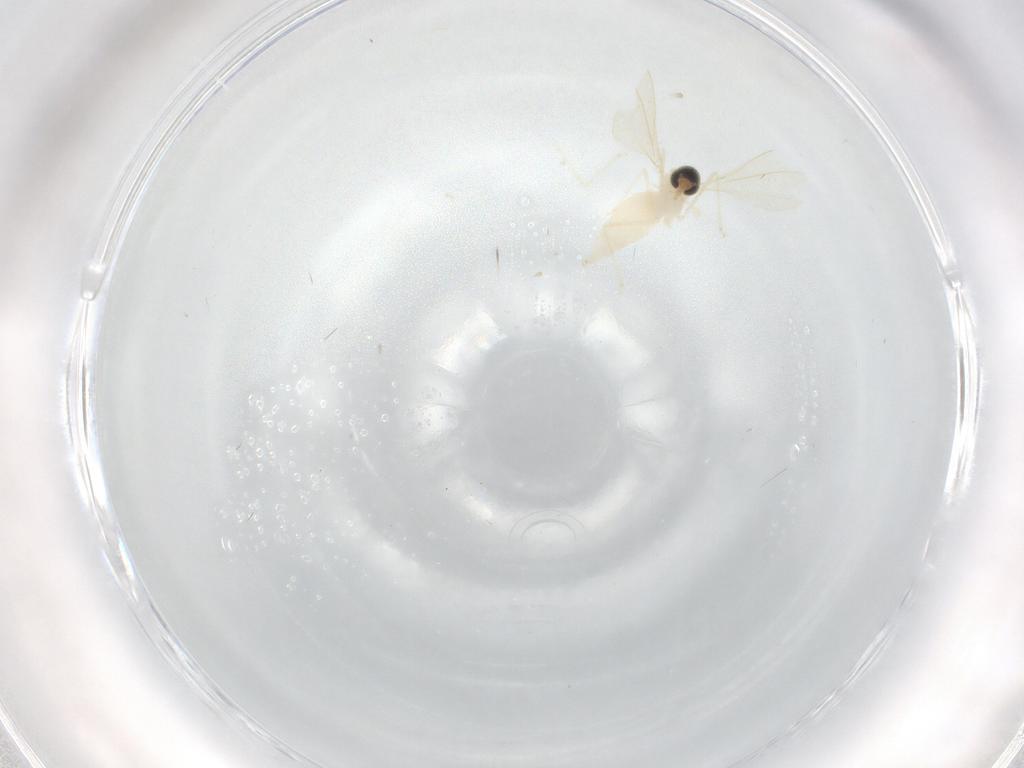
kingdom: Animalia
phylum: Arthropoda
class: Insecta
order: Diptera
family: Cecidomyiidae
